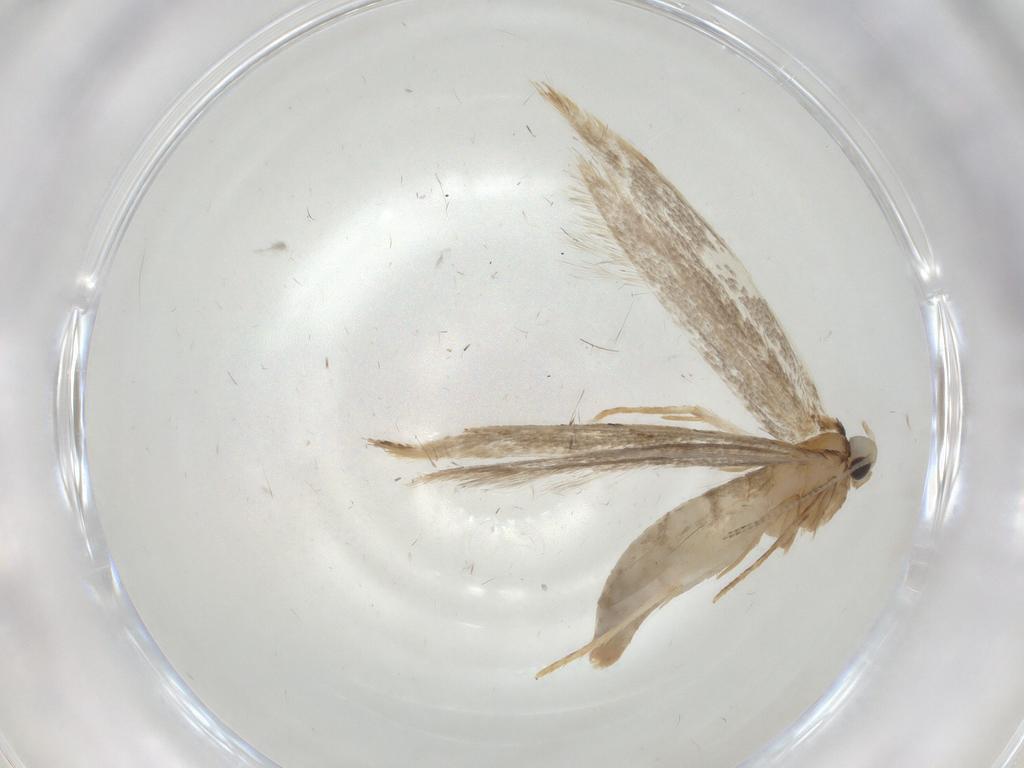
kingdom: Animalia
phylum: Arthropoda
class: Insecta
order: Lepidoptera
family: Tineidae
